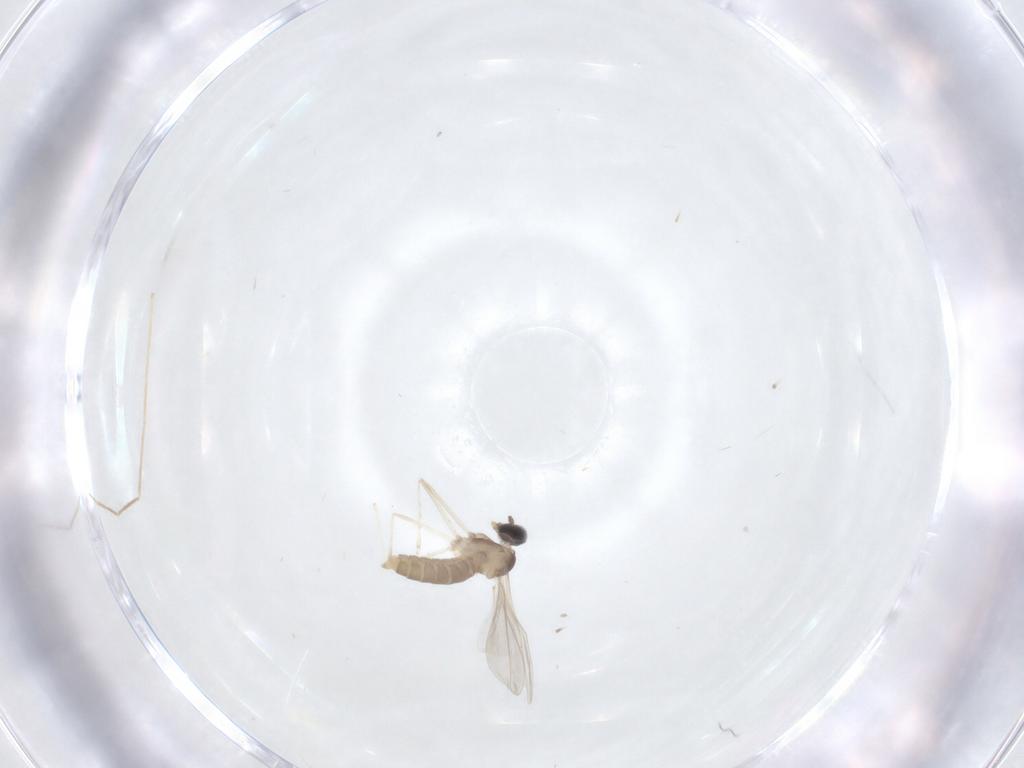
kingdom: Animalia
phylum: Arthropoda
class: Insecta
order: Diptera
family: Cecidomyiidae
